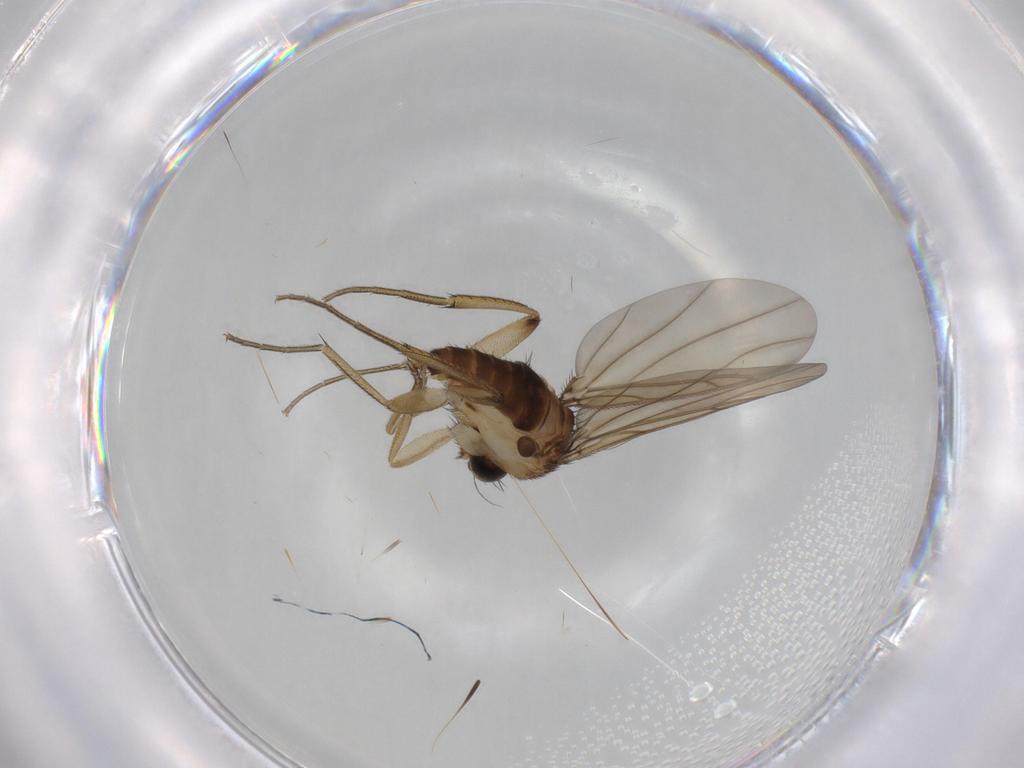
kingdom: Animalia
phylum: Arthropoda
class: Insecta
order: Diptera
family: Phoridae
